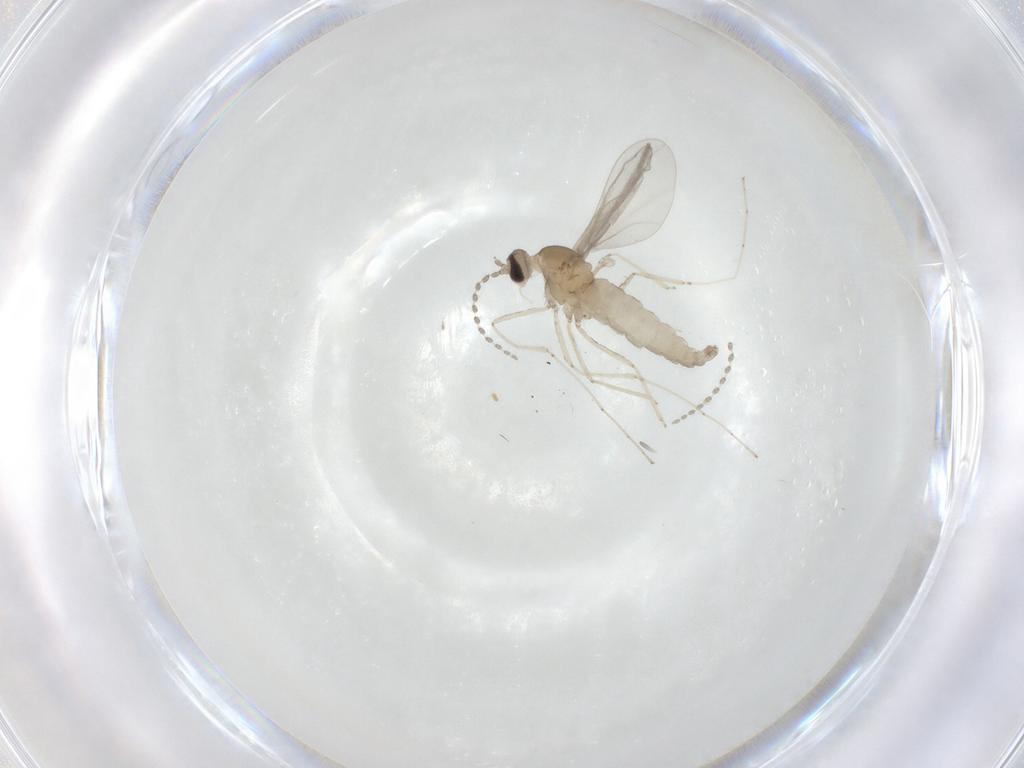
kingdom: Animalia
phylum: Arthropoda
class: Insecta
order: Diptera
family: Cecidomyiidae
